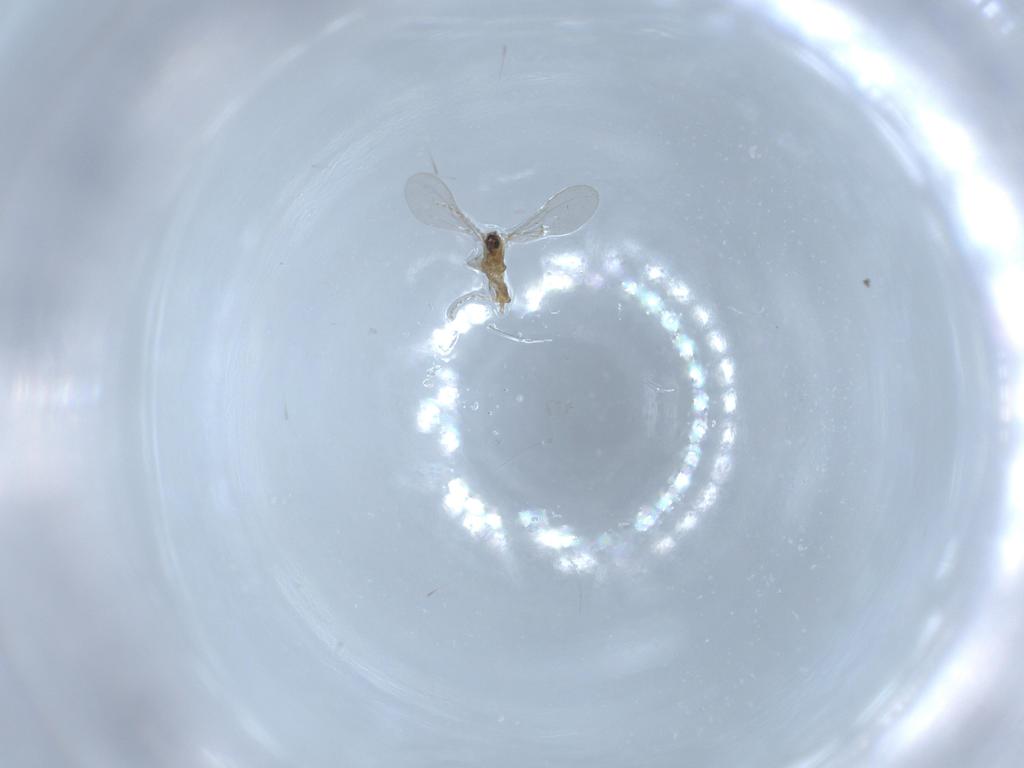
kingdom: Animalia
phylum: Arthropoda
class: Insecta
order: Diptera
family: Cecidomyiidae
